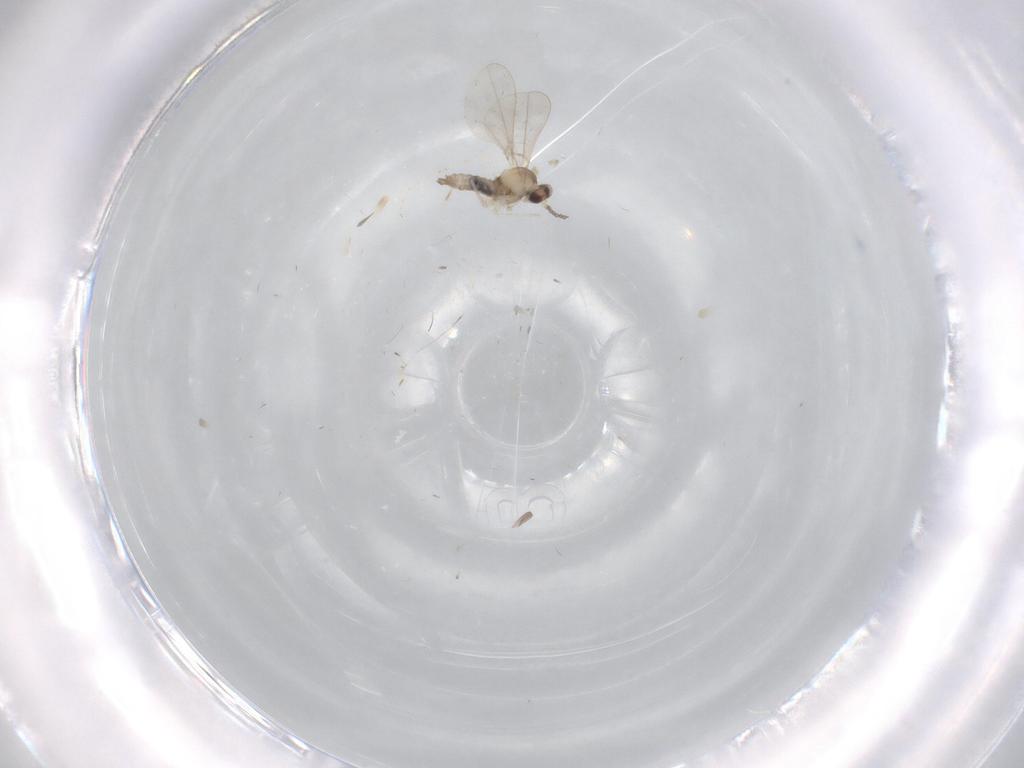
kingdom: Animalia
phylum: Arthropoda
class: Insecta
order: Diptera
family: Cecidomyiidae
